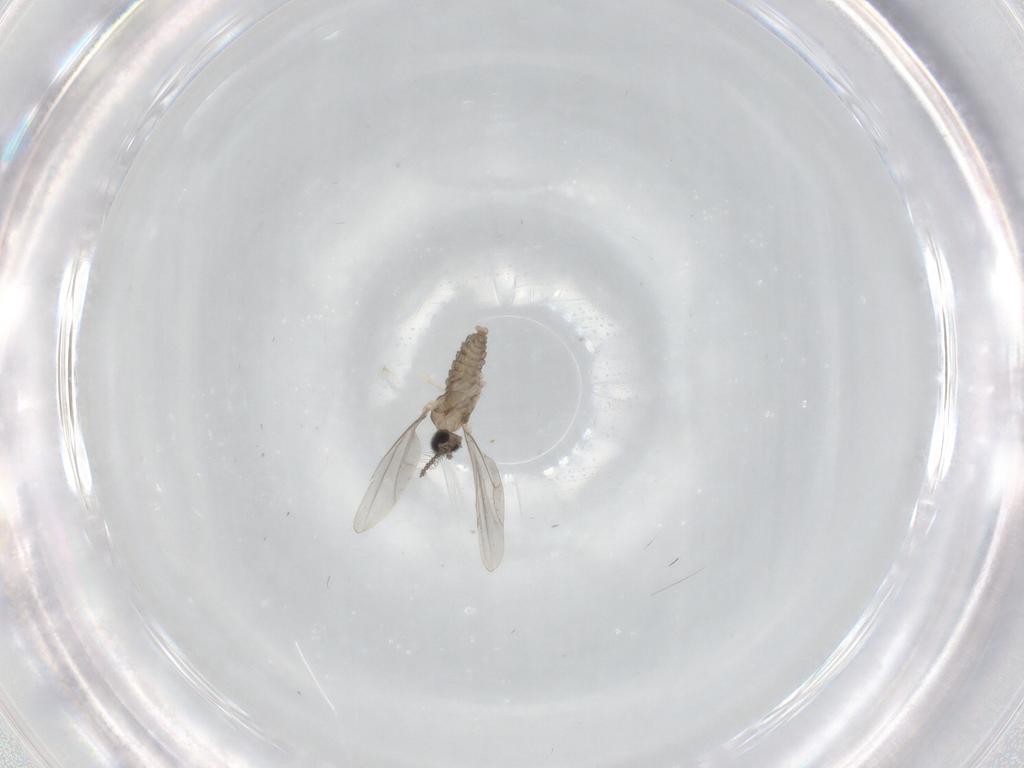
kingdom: Animalia
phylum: Arthropoda
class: Insecta
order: Diptera
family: Cecidomyiidae
